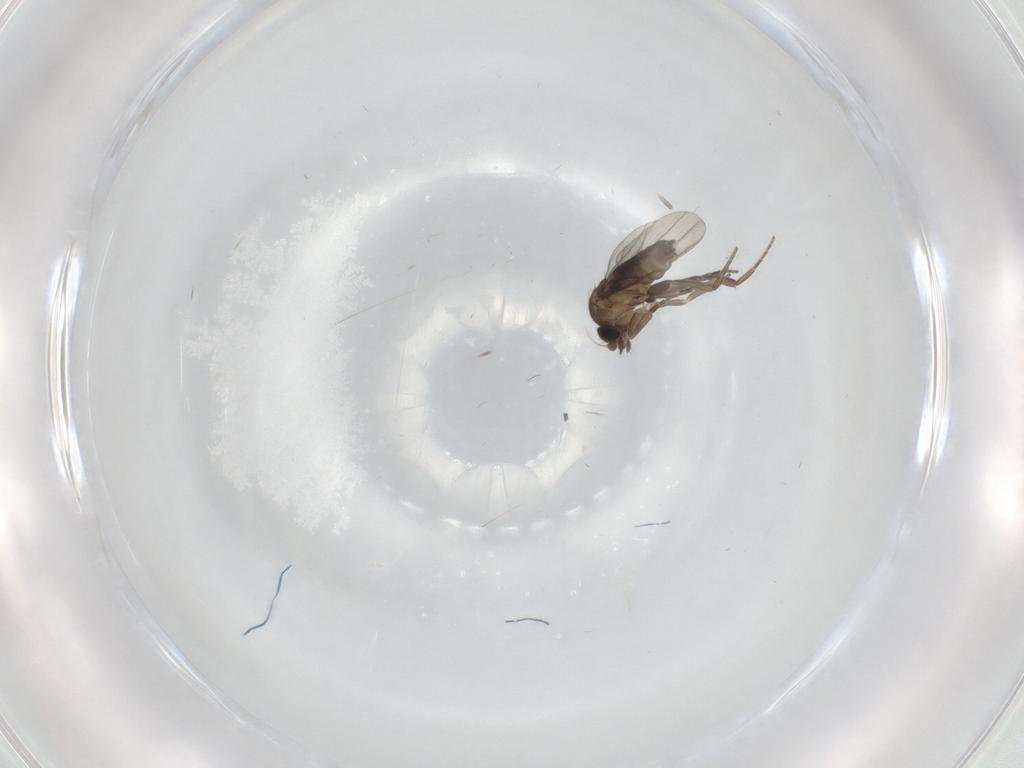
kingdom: Animalia
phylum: Arthropoda
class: Insecta
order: Diptera
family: Phoridae
